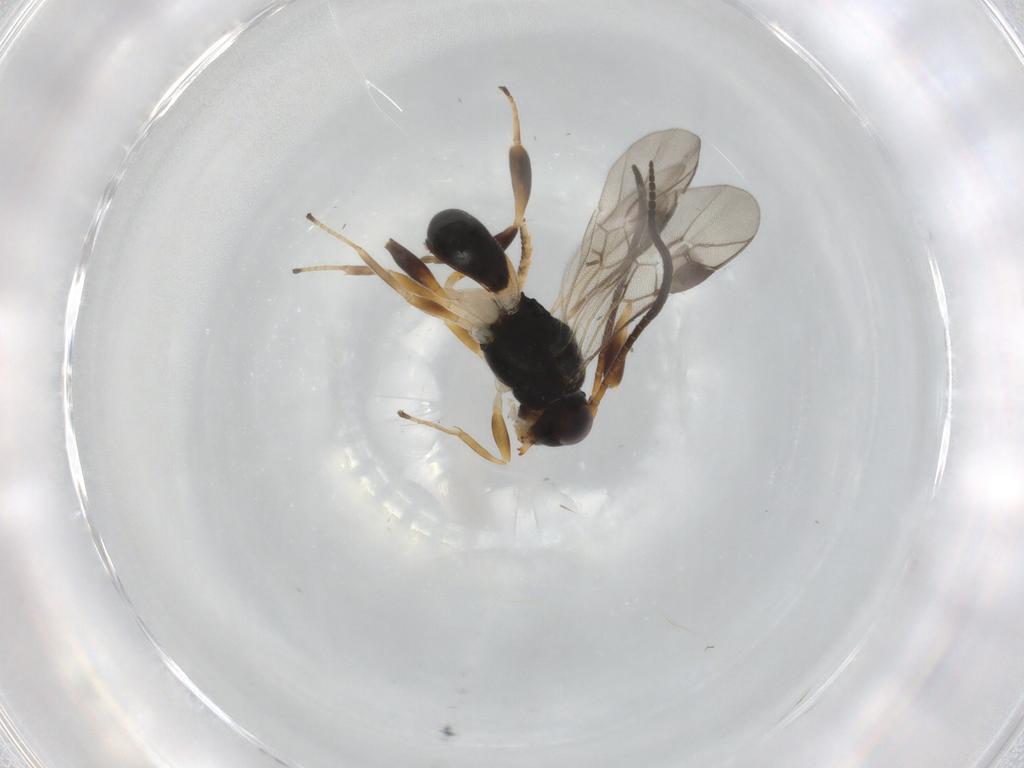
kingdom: Animalia
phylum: Arthropoda
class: Insecta
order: Hymenoptera
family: Braconidae
